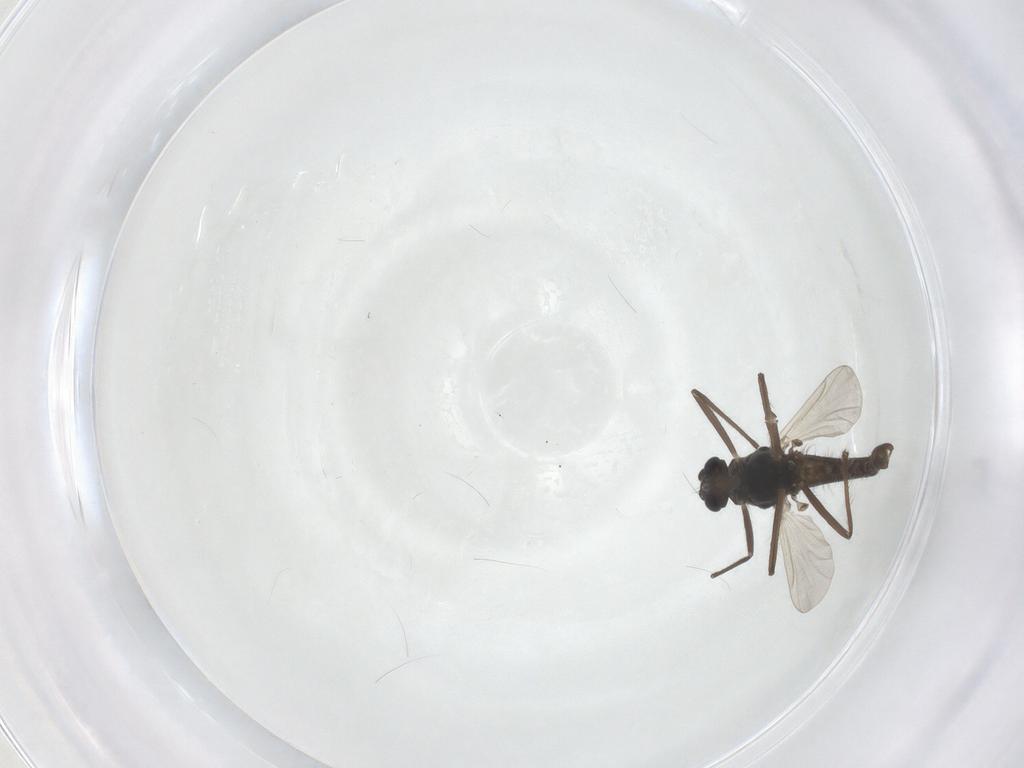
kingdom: Animalia
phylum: Arthropoda
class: Insecta
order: Diptera
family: Chironomidae
